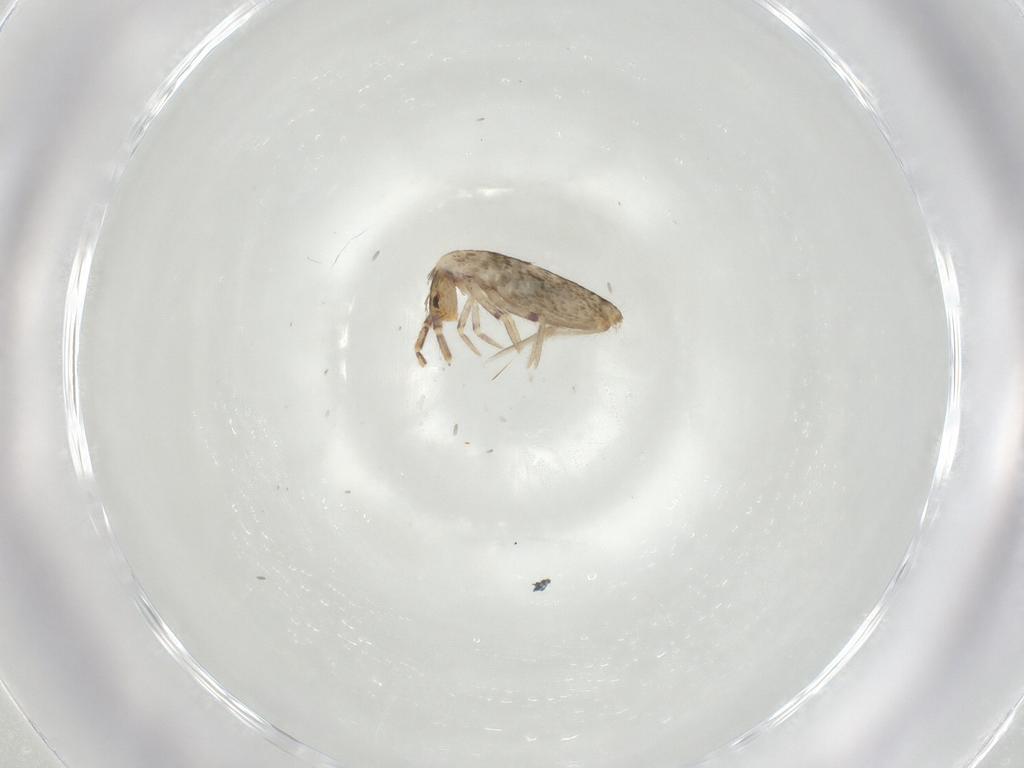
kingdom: Animalia
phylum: Arthropoda
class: Collembola
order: Entomobryomorpha
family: Entomobryidae
